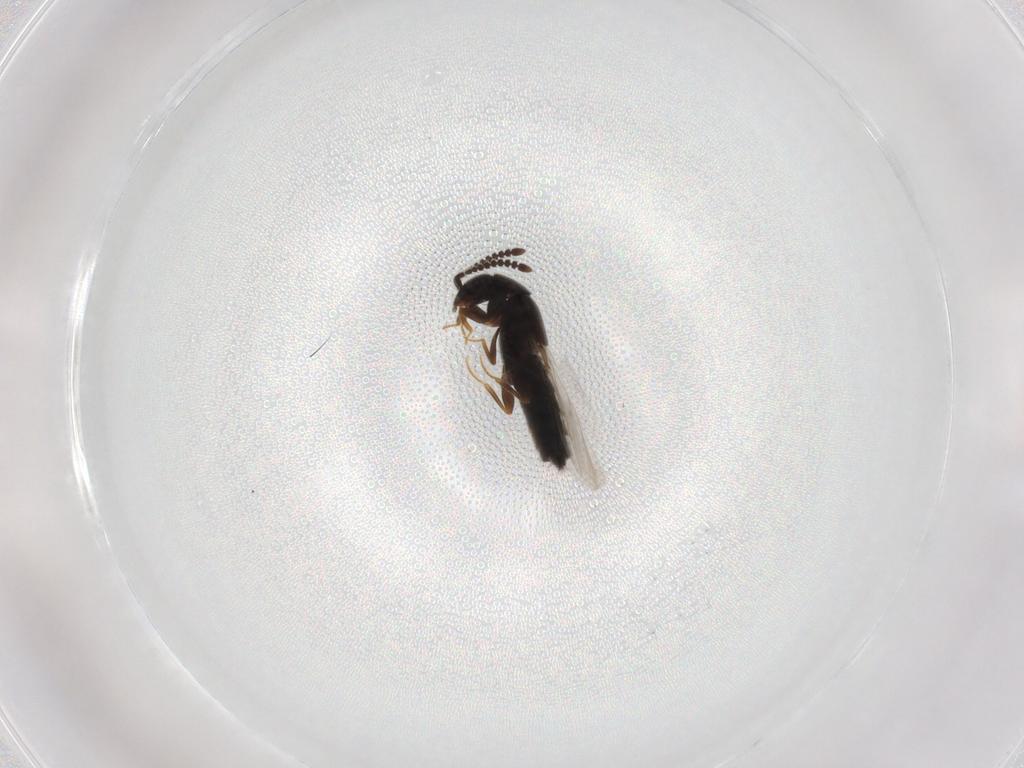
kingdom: Animalia
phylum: Arthropoda
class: Insecta
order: Coleoptera
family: Staphylinidae
